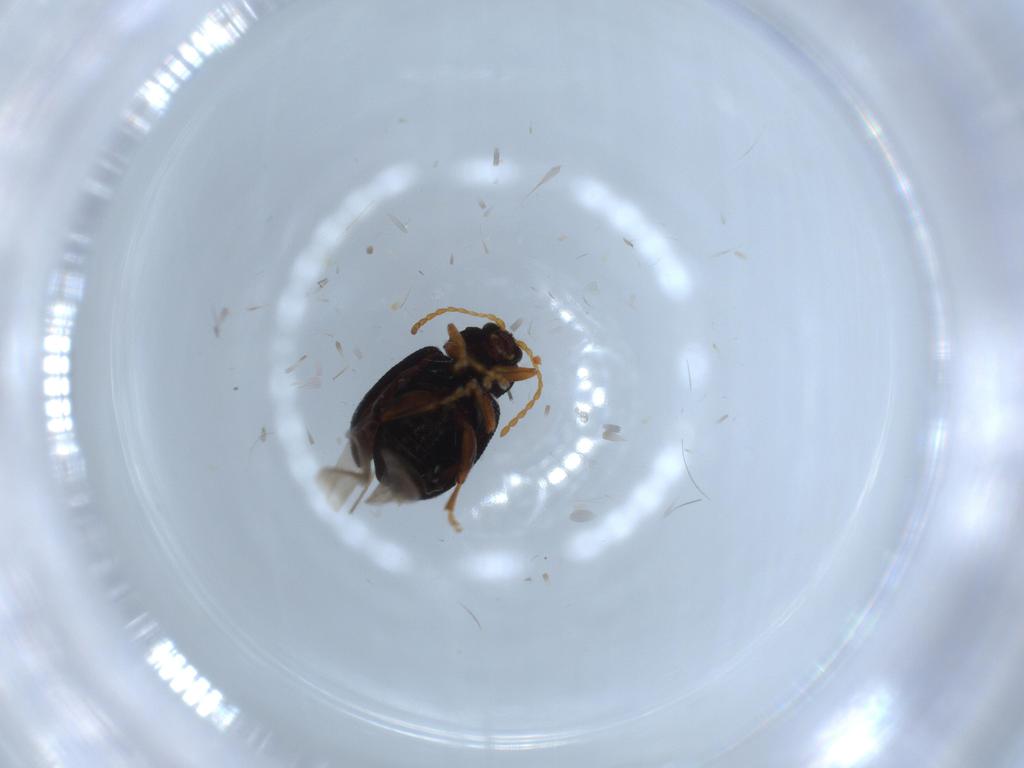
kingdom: Animalia
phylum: Arthropoda
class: Insecta
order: Coleoptera
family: Chrysomelidae
